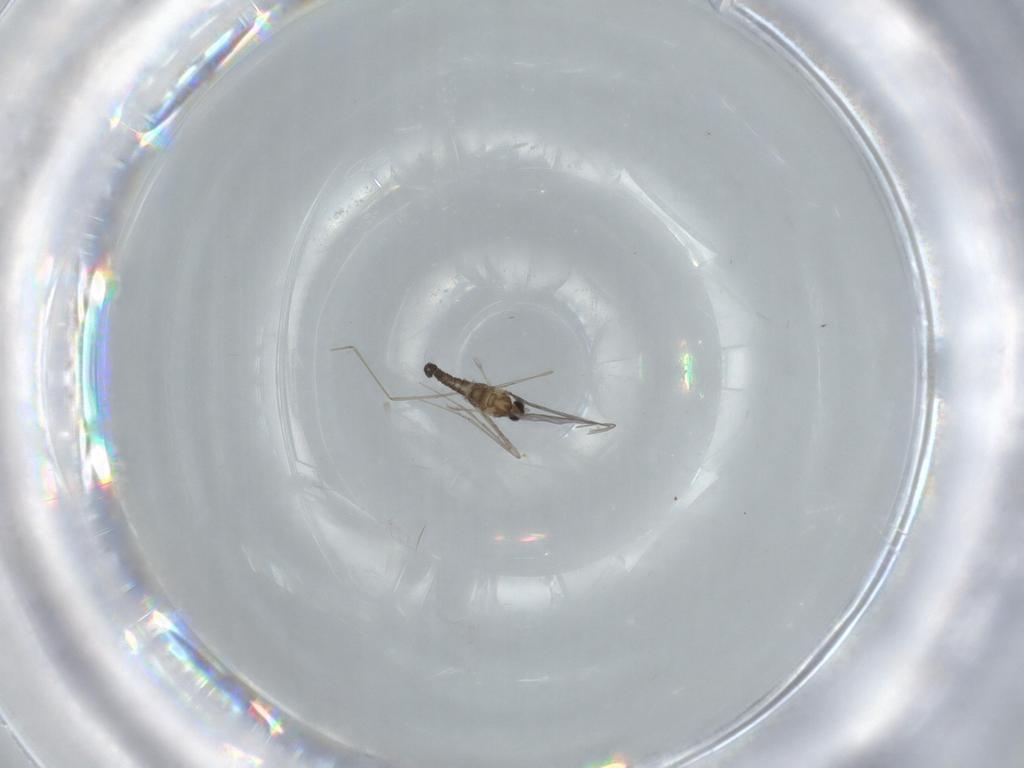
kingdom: Animalia
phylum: Arthropoda
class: Insecta
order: Diptera
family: Cecidomyiidae
